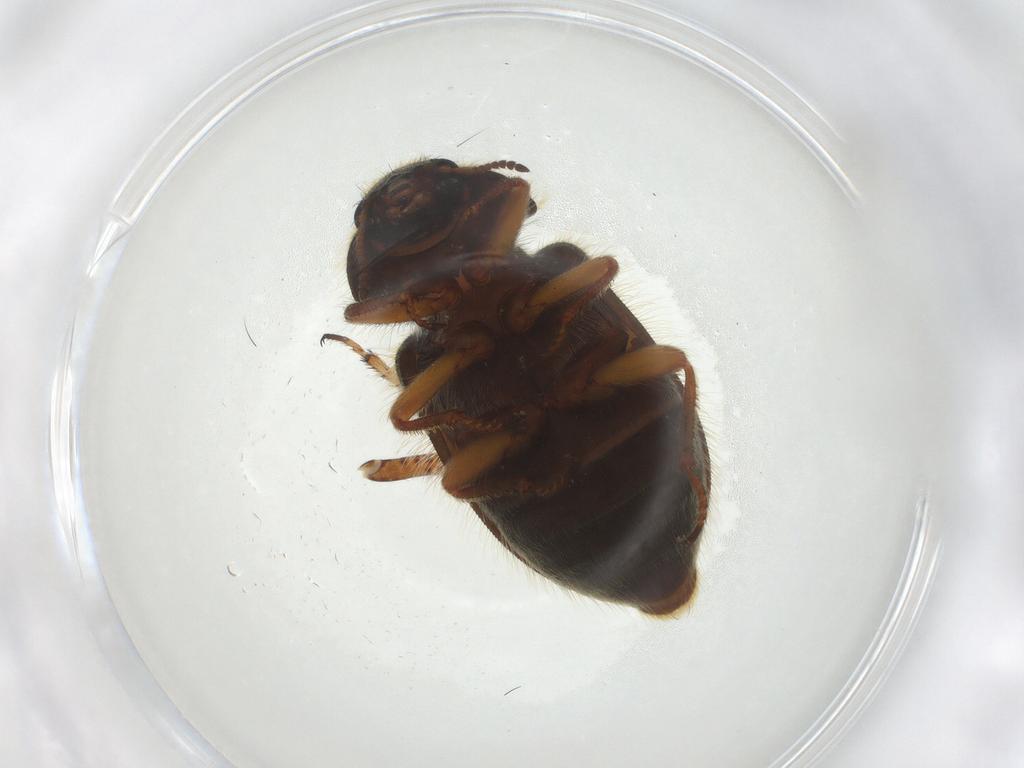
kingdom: Animalia
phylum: Arthropoda
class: Insecta
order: Coleoptera
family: Melyridae
